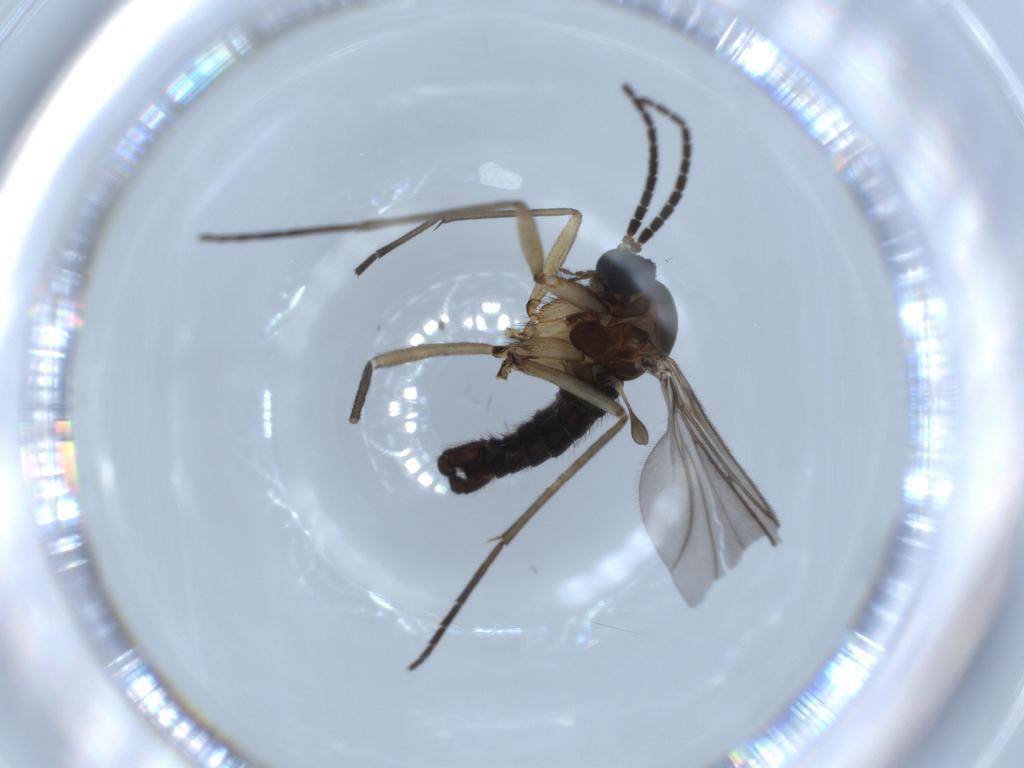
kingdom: Animalia
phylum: Arthropoda
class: Insecta
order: Diptera
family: Sciaridae
